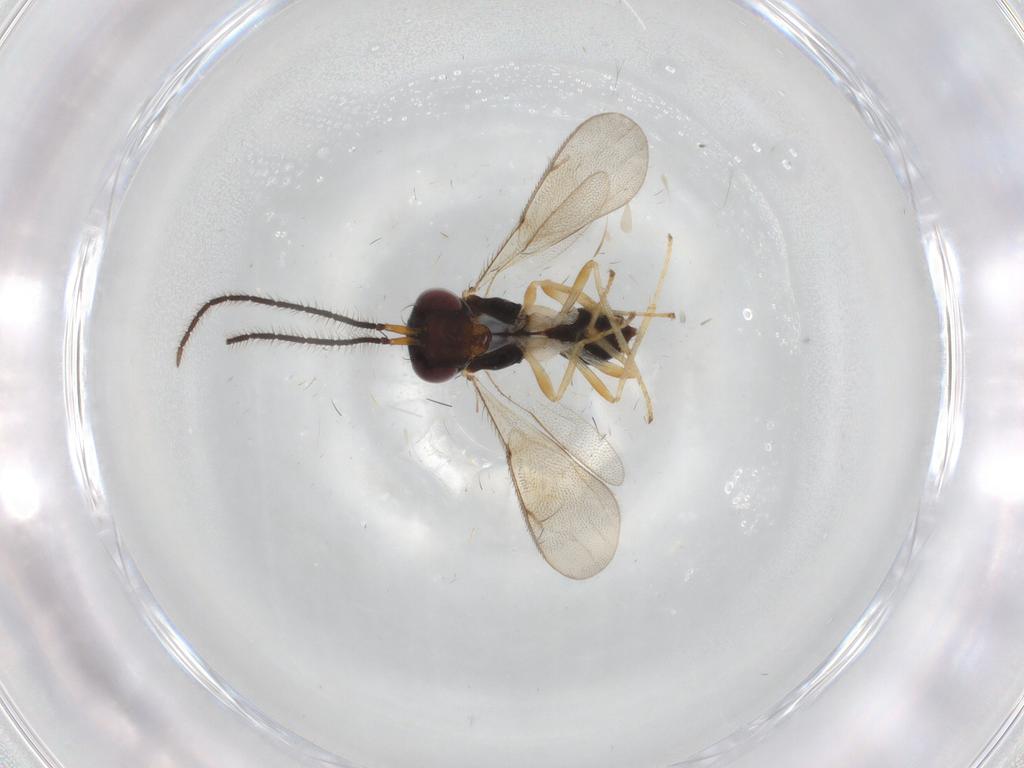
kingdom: Animalia
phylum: Arthropoda
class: Insecta
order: Hymenoptera
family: Diparidae
